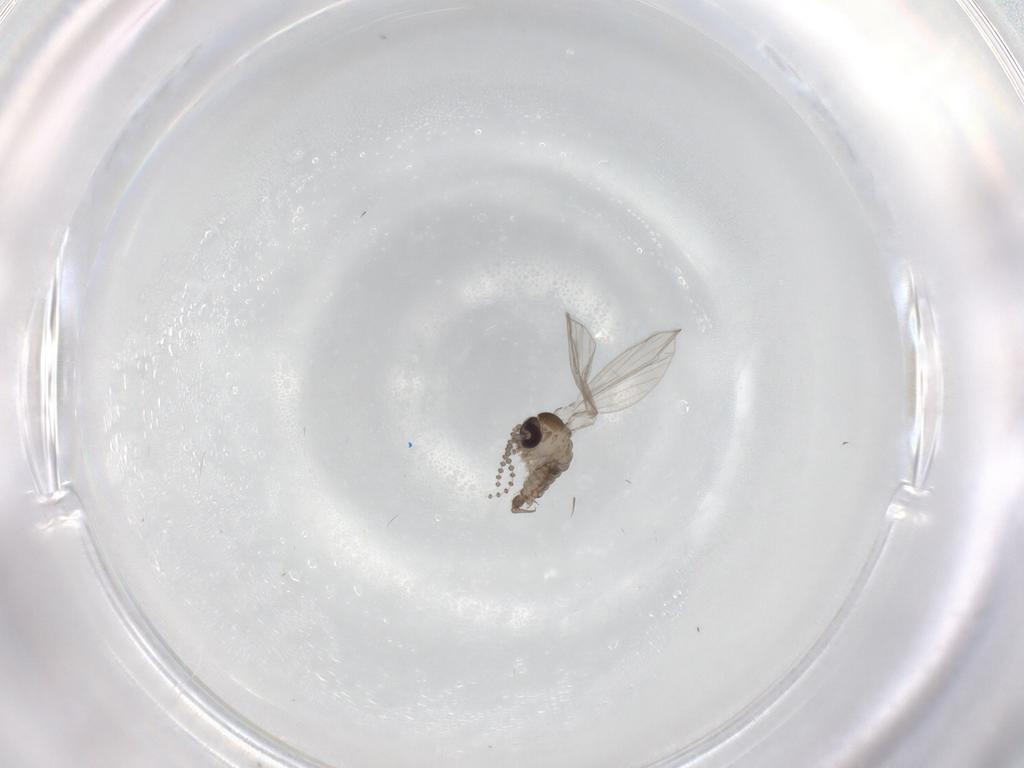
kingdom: Animalia
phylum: Arthropoda
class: Insecta
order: Diptera
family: Psychodidae
